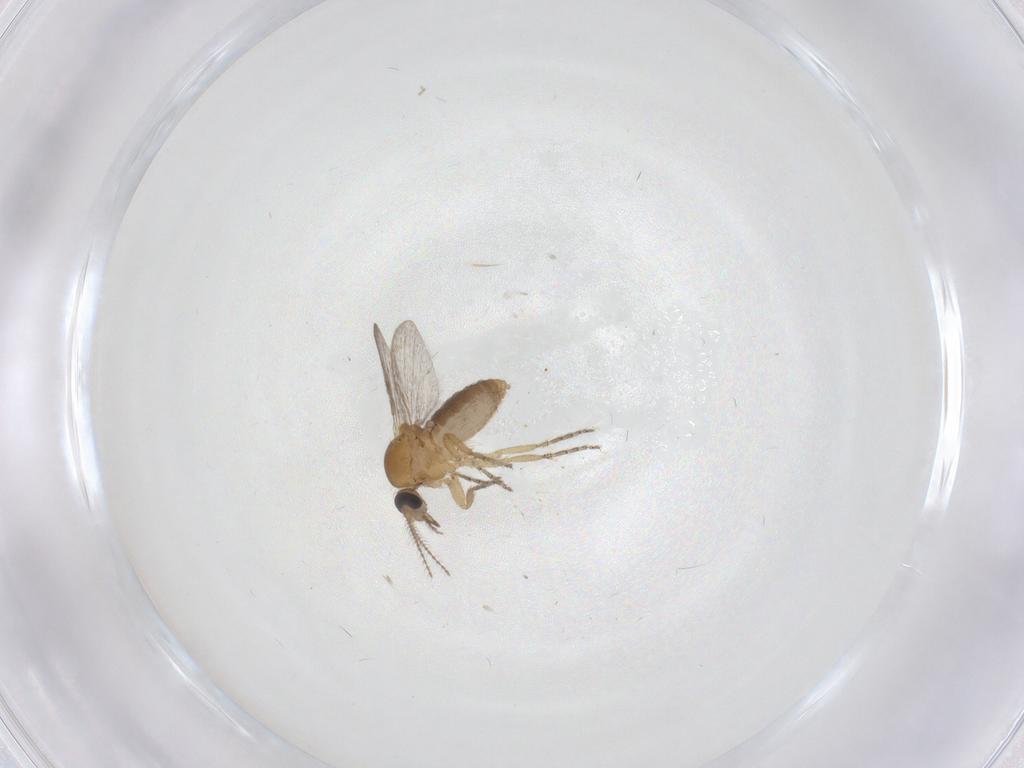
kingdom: Animalia
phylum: Arthropoda
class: Insecta
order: Diptera
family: Ceratopogonidae
